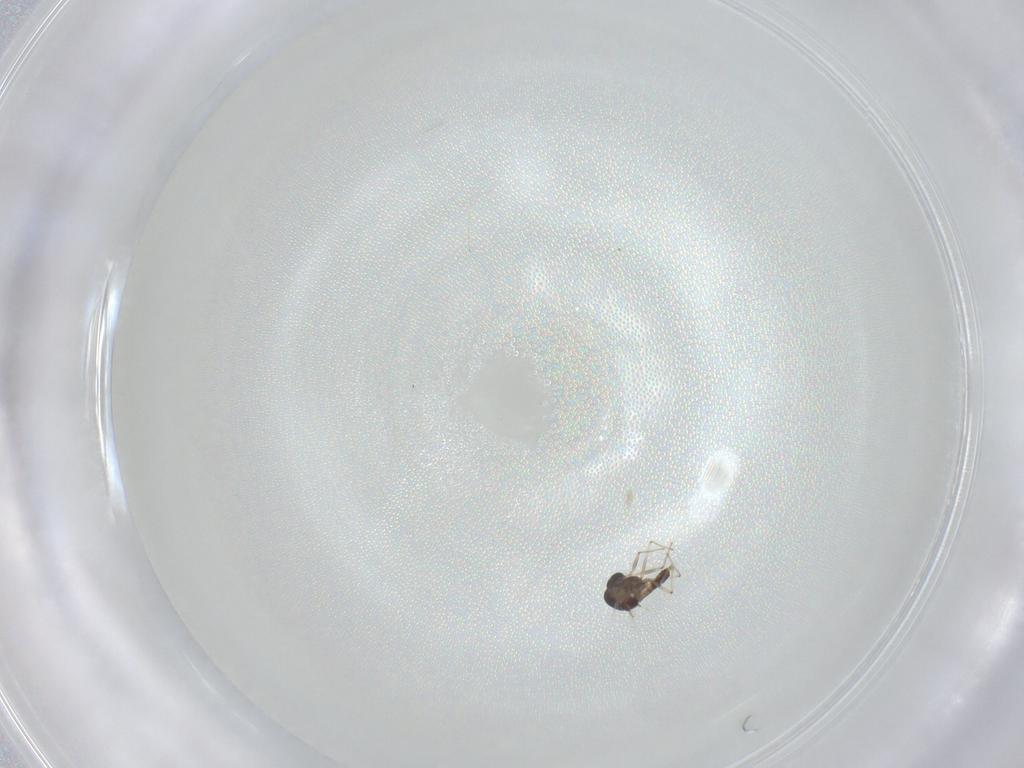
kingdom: Animalia
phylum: Arthropoda
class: Insecta
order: Diptera
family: Chironomidae
